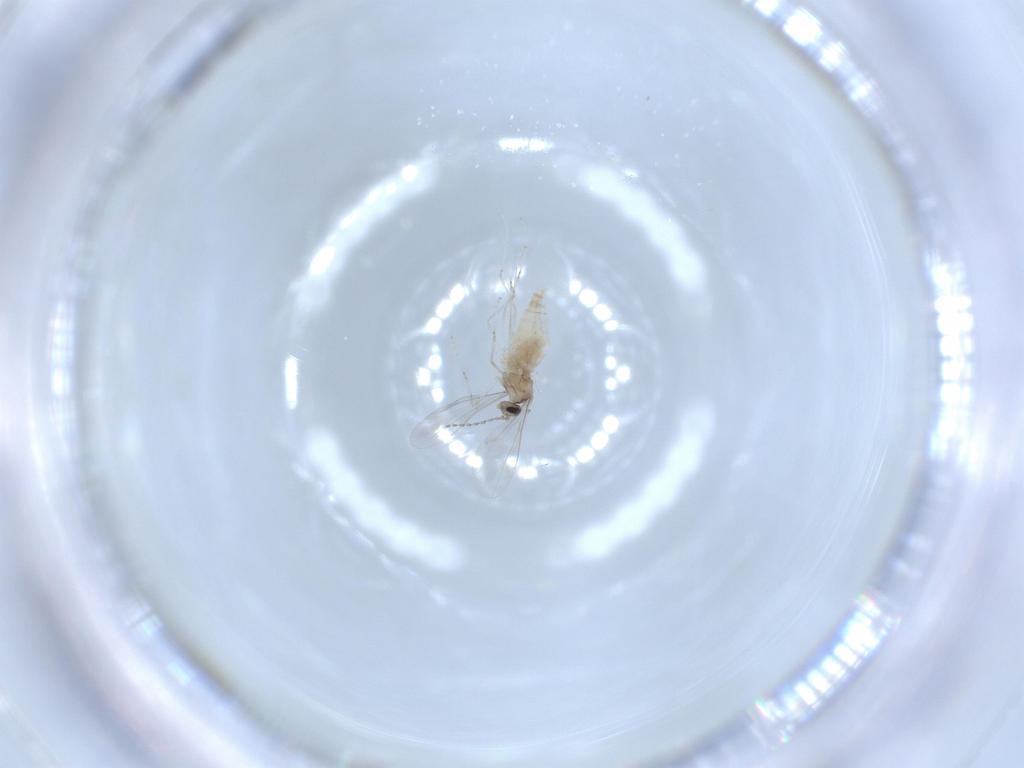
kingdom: Animalia
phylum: Arthropoda
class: Insecta
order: Diptera
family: Cecidomyiidae
